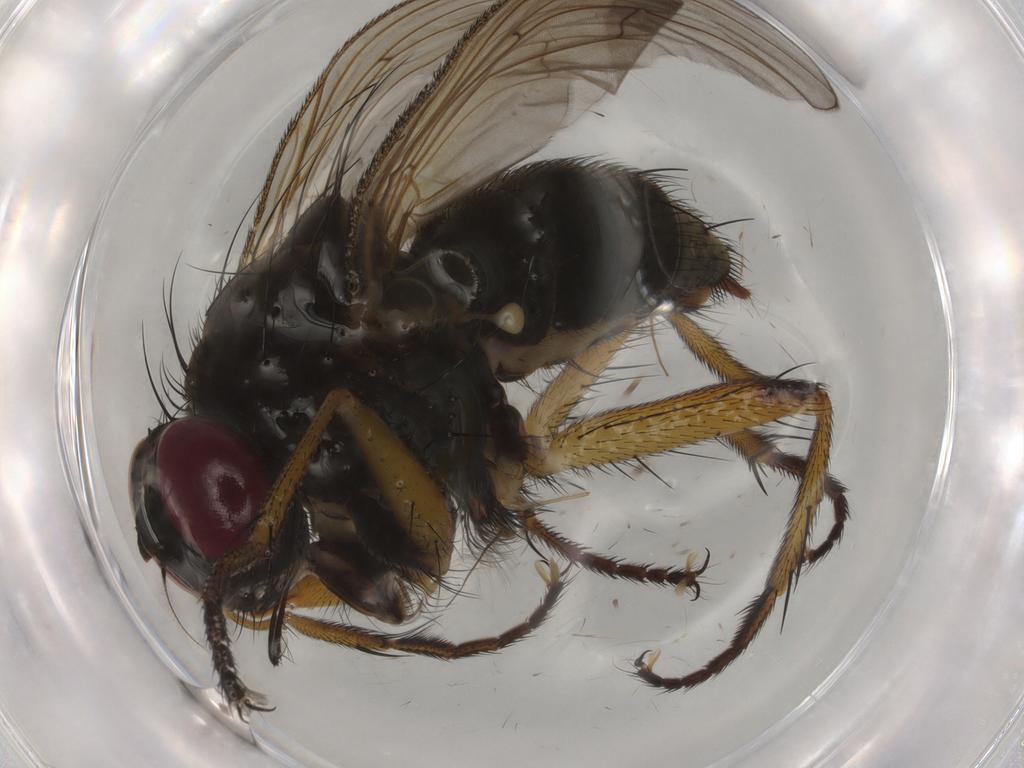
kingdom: Animalia
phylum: Arthropoda
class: Insecta
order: Diptera
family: Muscidae
